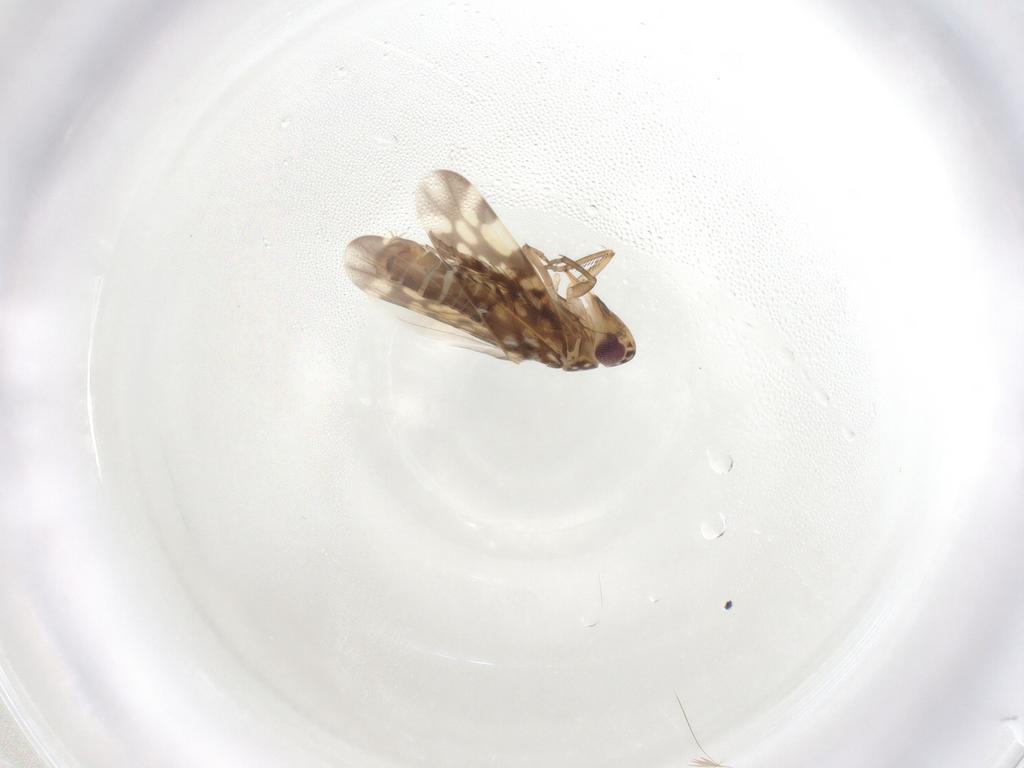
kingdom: Animalia
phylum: Arthropoda
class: Insecta
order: Hemiptera
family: Cicadellidae
